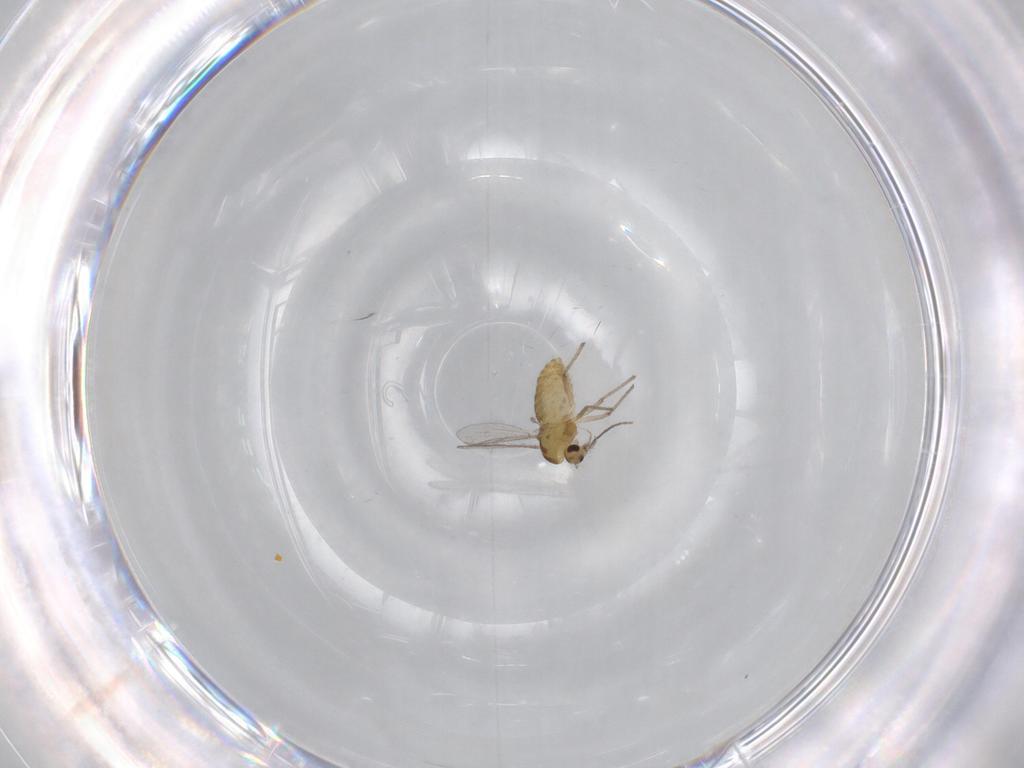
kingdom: Animalia
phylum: Arthropoda
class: Insecta
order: Diptera
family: Chironomidae
